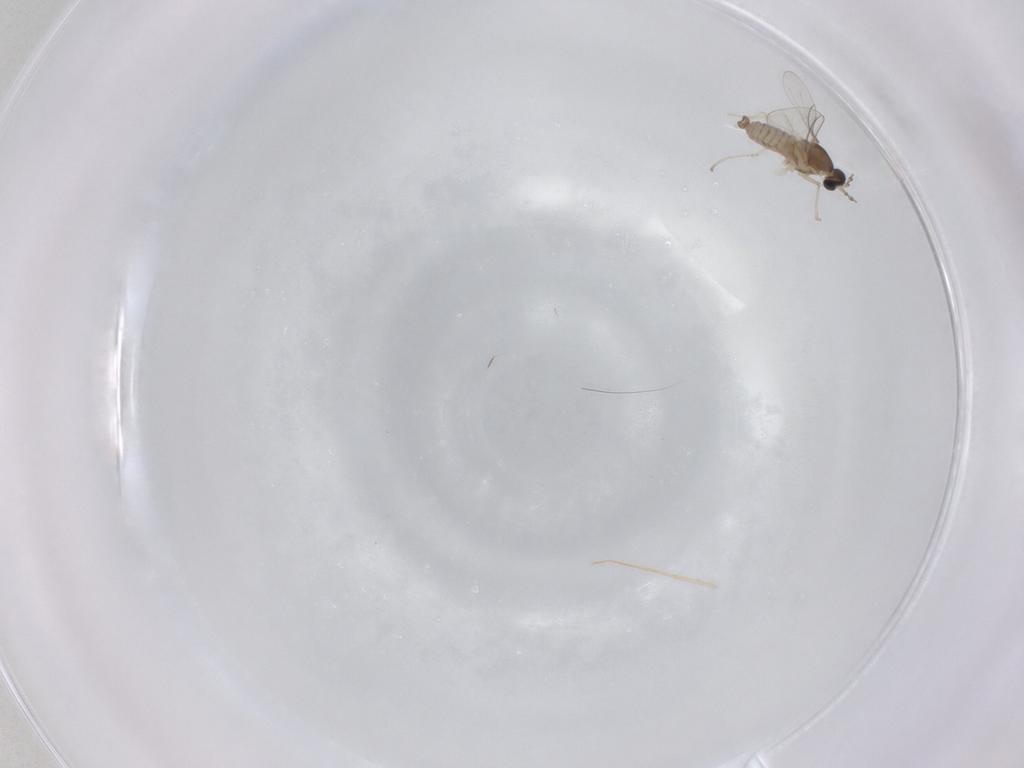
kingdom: Animalia
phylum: Arthropoda
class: Insecta
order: Diptera
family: Cecidomyiidae
